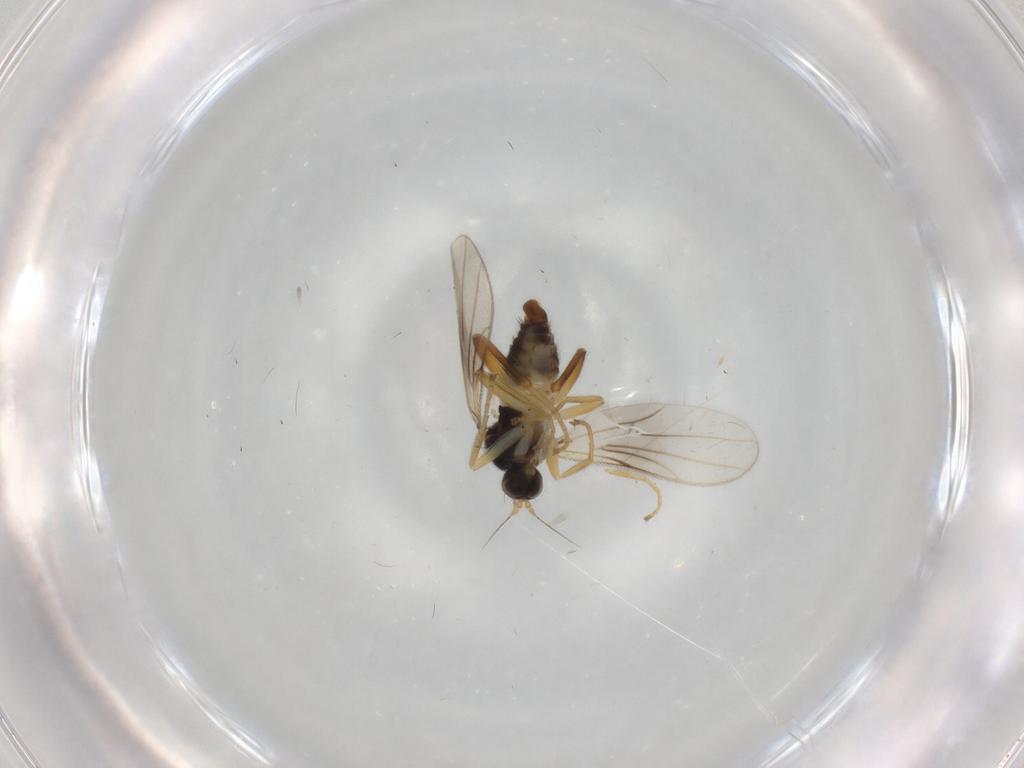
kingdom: Animalia
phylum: Arthropoda
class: Insecta
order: Diptera
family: Hybotidae
